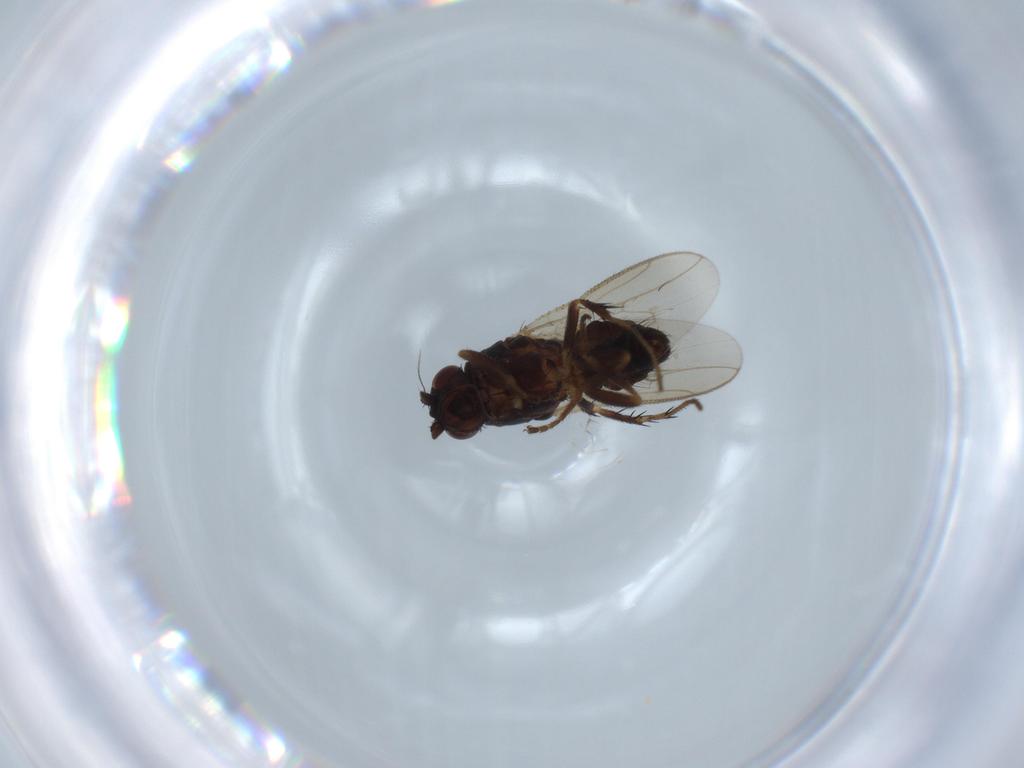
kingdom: Animalia
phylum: Arthropoda
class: Insecta
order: Diptera
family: Sphaeroceridae
